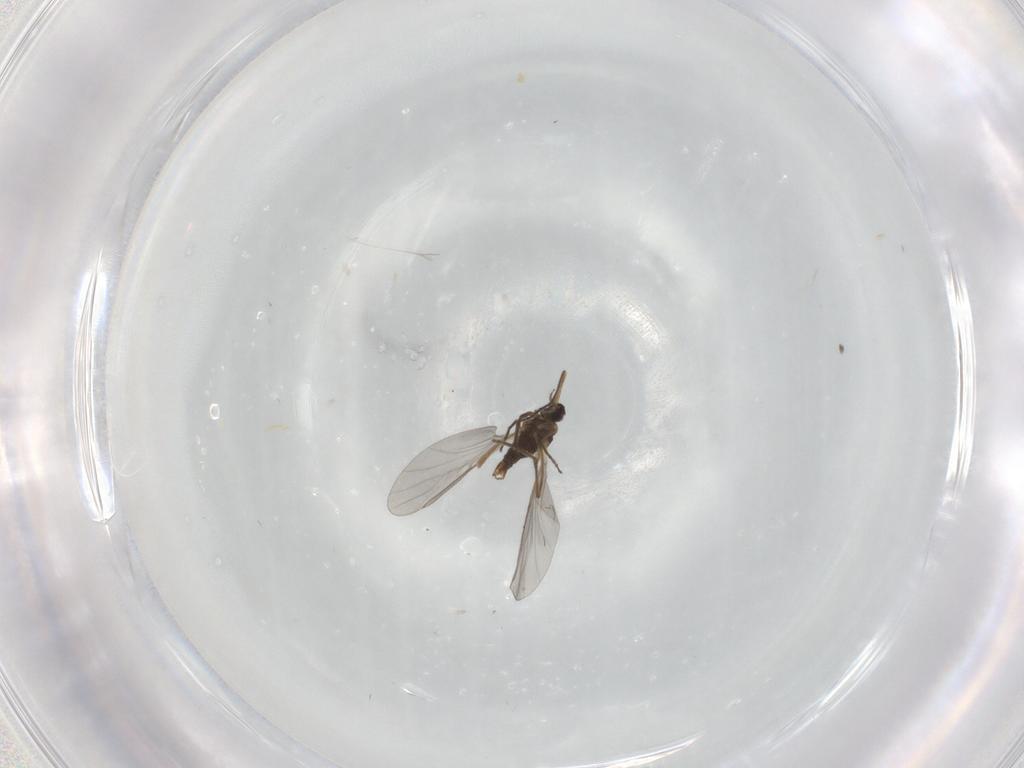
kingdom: Animalia
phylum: Arthropoda
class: Insecta
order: Diptera
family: Cecidomyiidae
